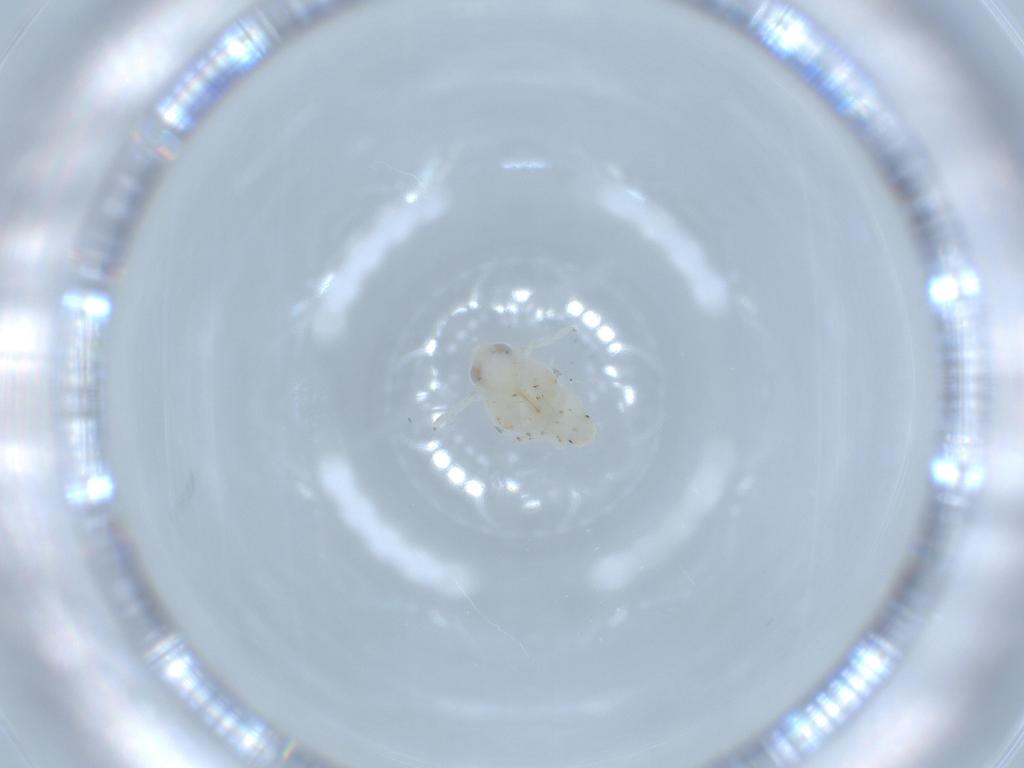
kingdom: Animalia
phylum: Arthropoda
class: Insecta
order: Hemiptera
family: Nogodinidae
